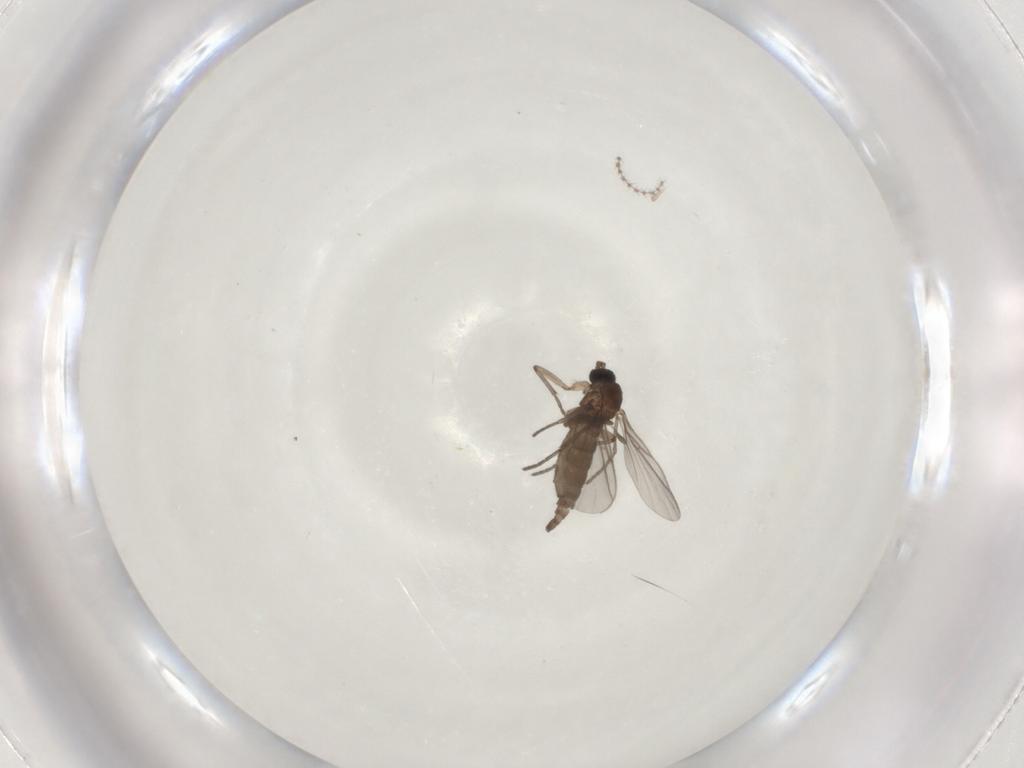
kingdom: Animalia
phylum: Arthropoda
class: Insecta
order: Diptera
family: Cecidomyiidae
